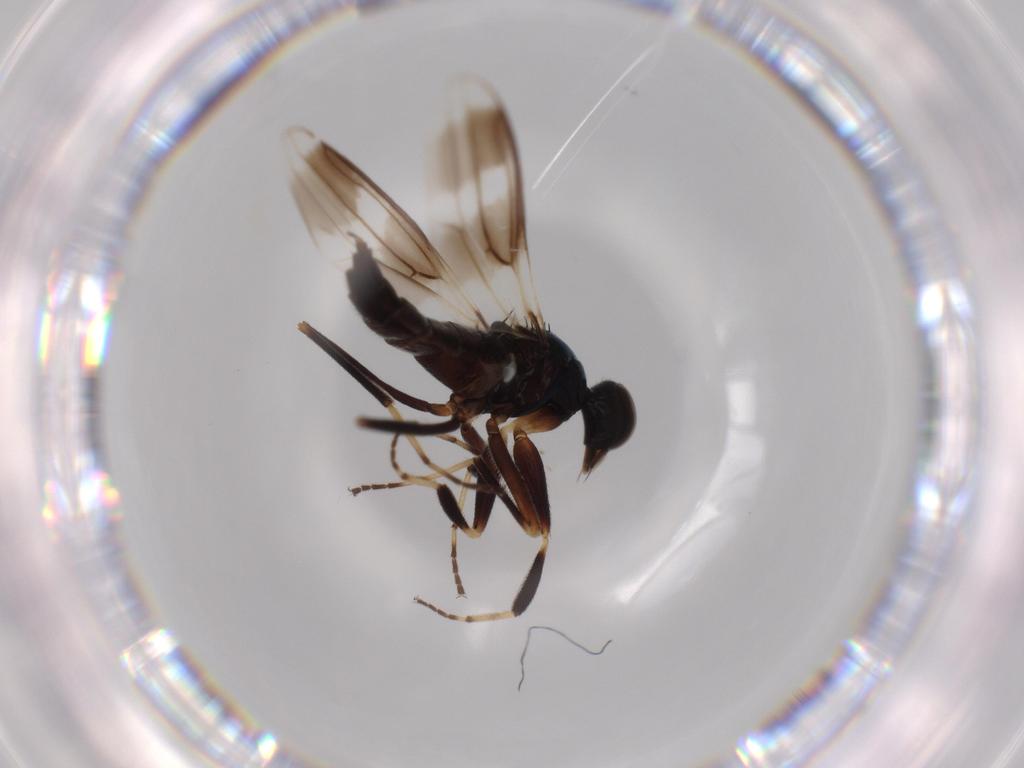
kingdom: Animalia
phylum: Arthropoda
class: Insecta
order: Diptera
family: Hybotidae
